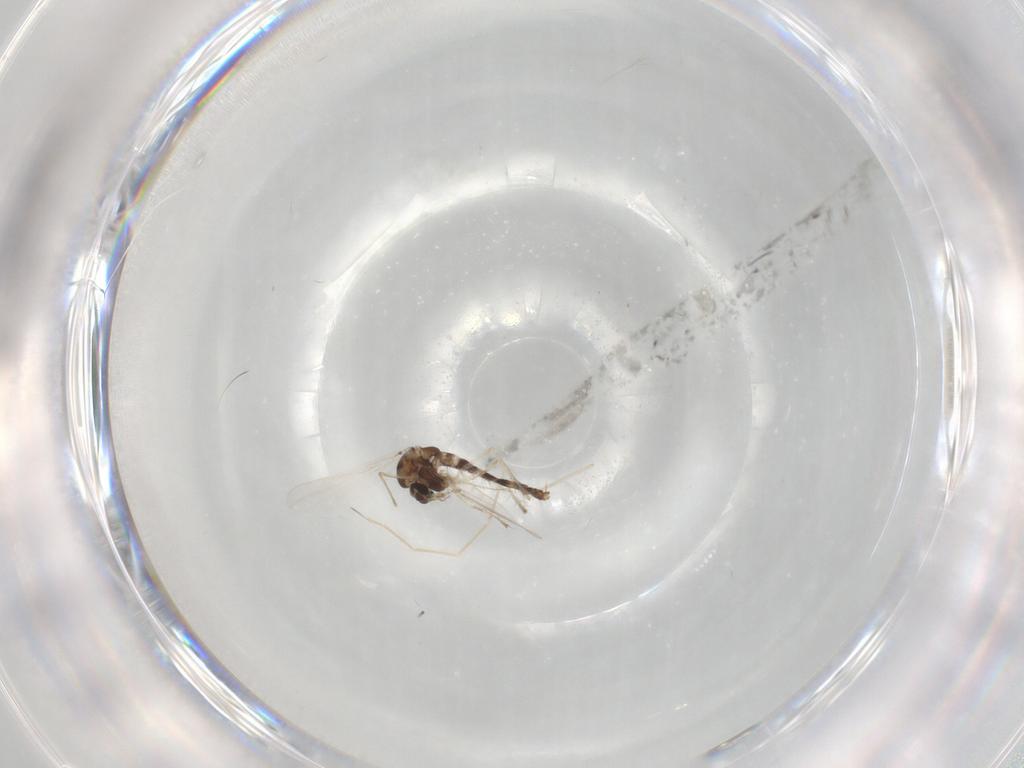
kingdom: Animalia
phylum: Arthropoda
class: Insecta
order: Diptera
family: Chironomidae
